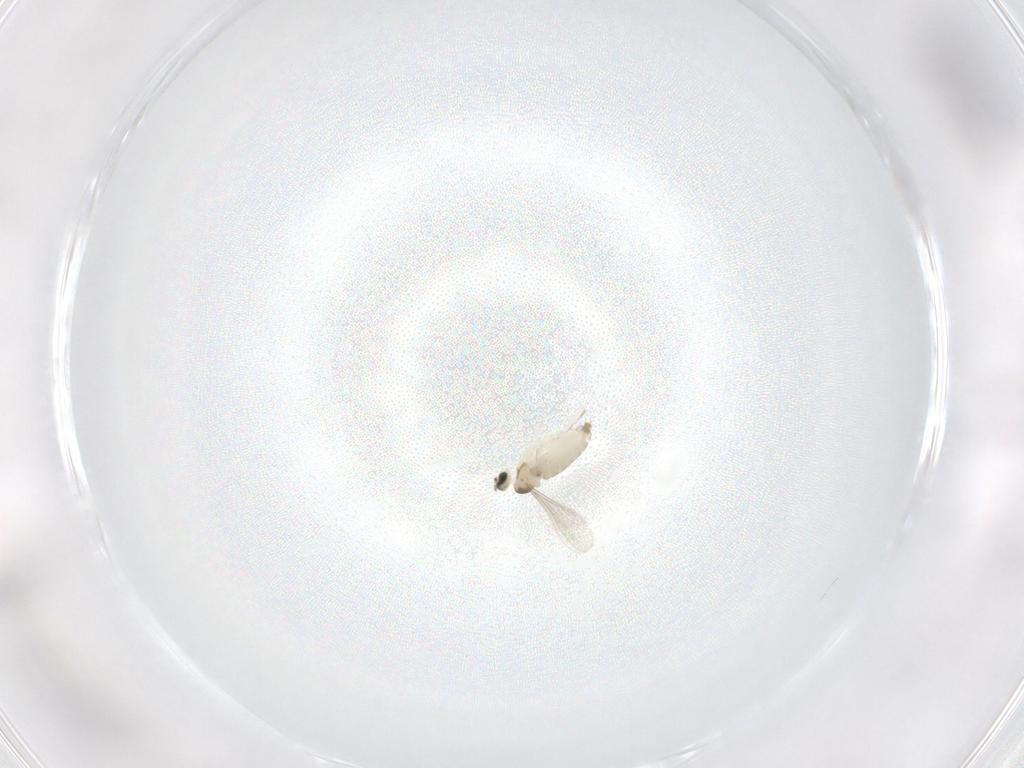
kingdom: Animalia
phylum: Arthropoda
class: Insecta
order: Diptera
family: Cecidomyiidae
